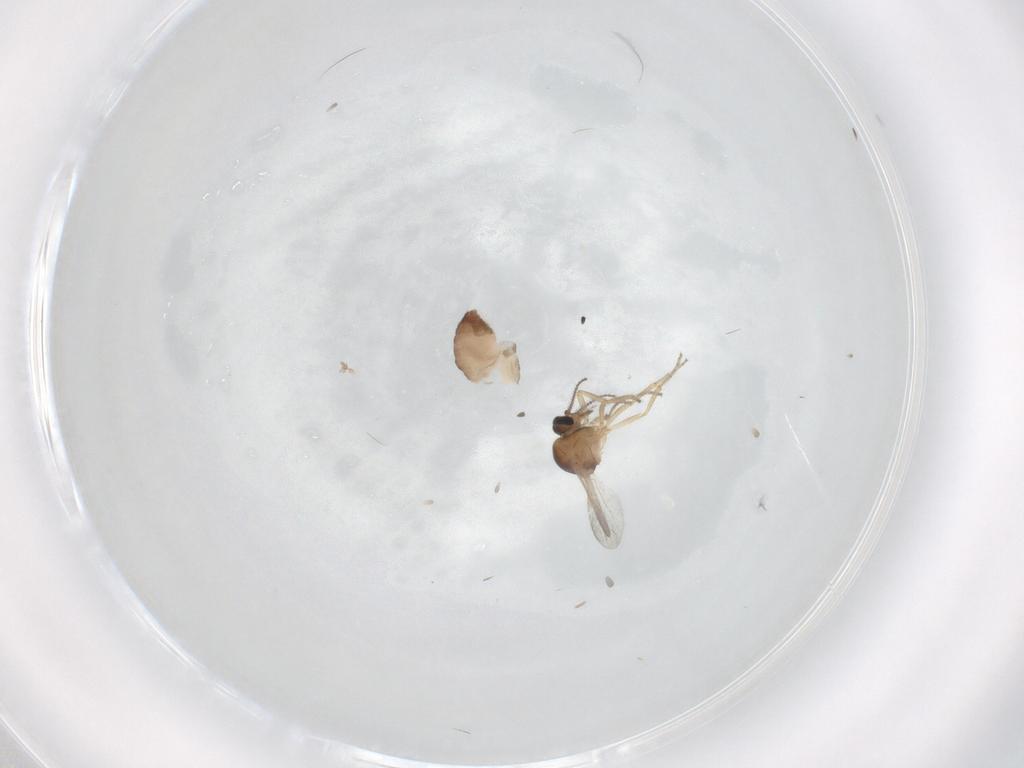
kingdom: Animalia
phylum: Arthropoda
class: Insecta
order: Diptera
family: Ceratopogonidae
